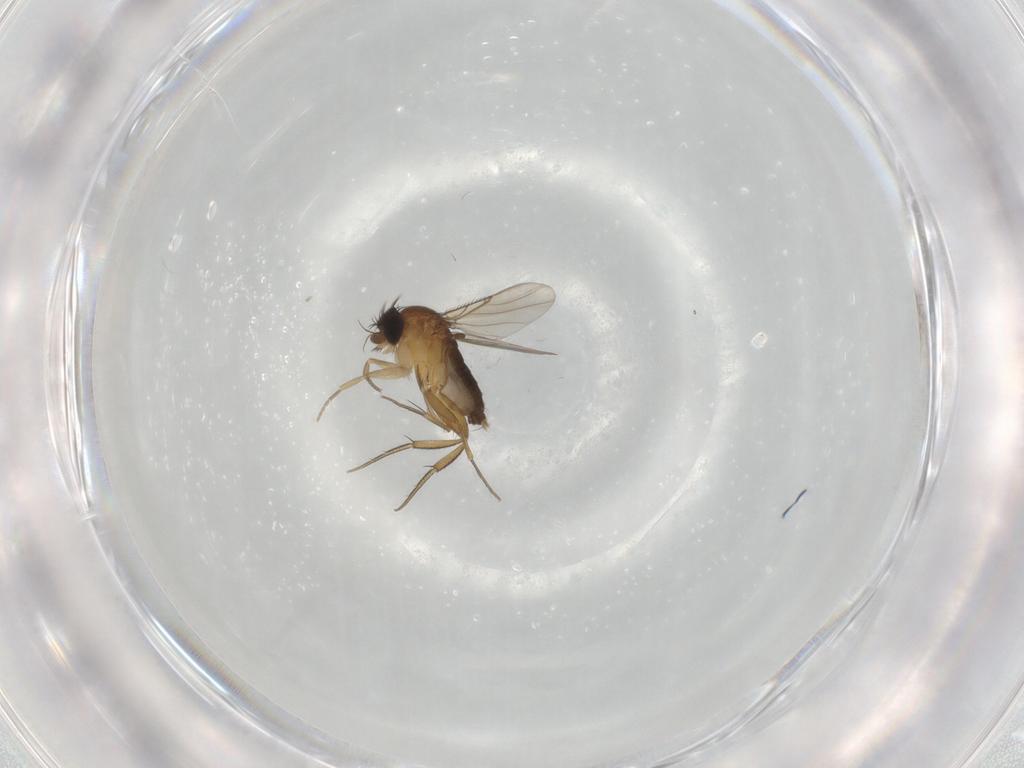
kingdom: Animalia
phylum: Arthropoda
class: Insecta
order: Diptera
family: Phoridae
